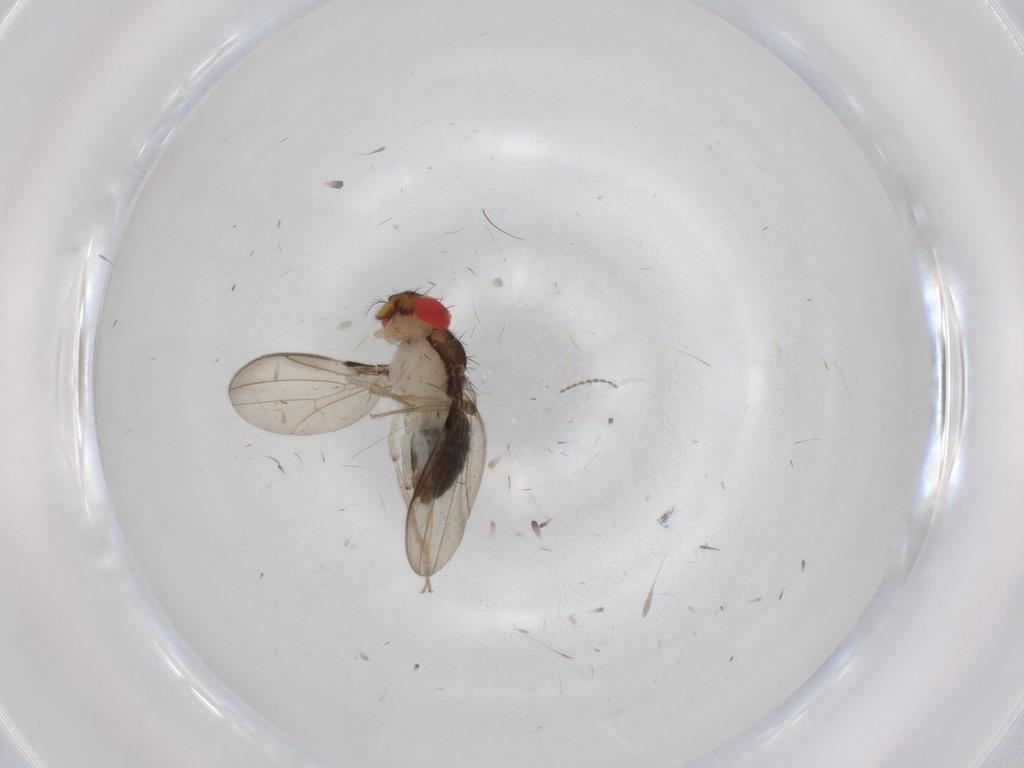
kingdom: Animalia
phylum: Arthropoda
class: Insecta
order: Diptera
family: Drosophilidae
